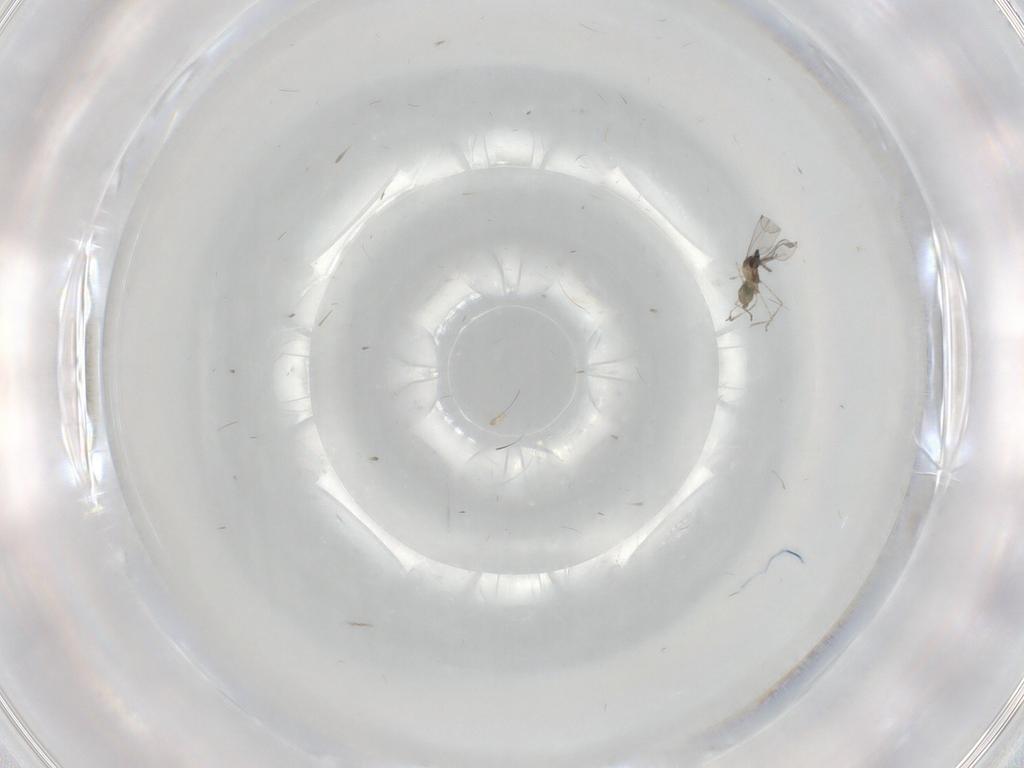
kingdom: Animalia
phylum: Arthropoda
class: Insecta
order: Diptera
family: Cecidomyiidae
